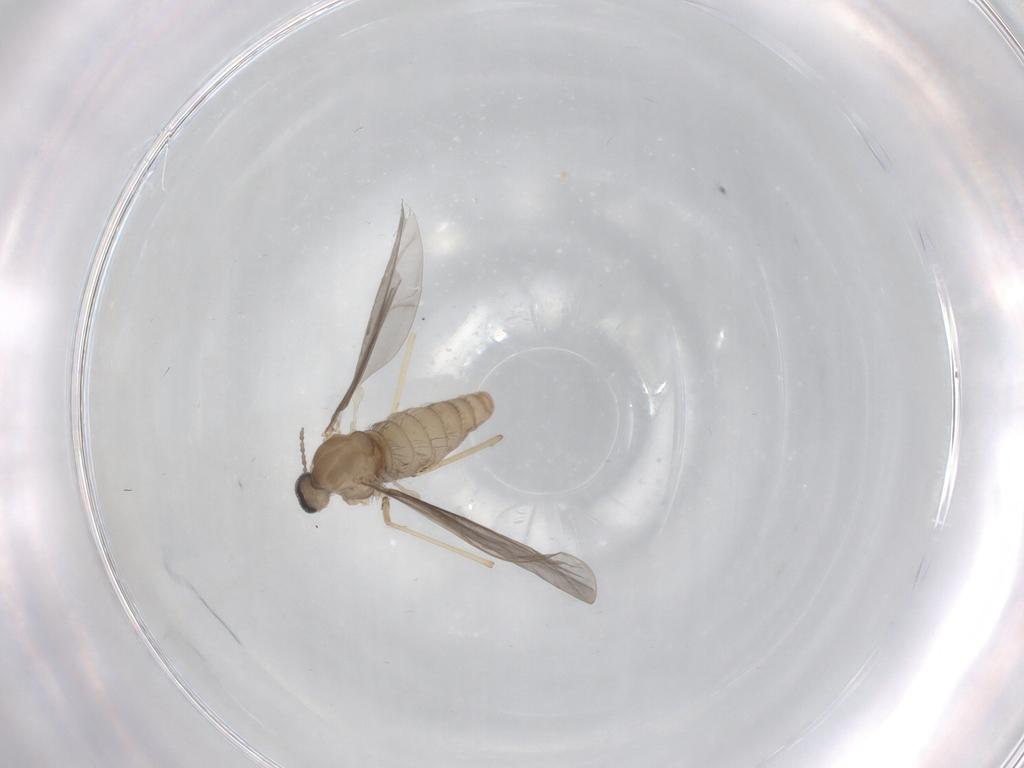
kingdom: Animalia
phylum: Arthropoda
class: Insecta
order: Diptera
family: Cecidomyiidae
